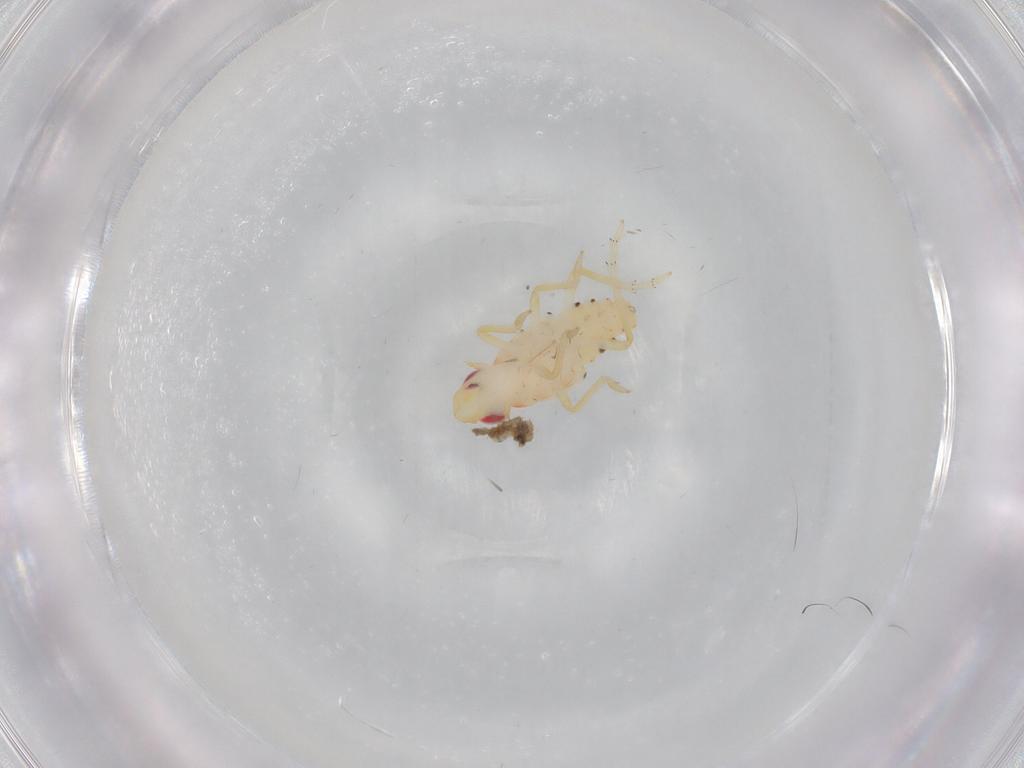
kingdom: Animalia
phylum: Arthropoda
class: Insecta
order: Hemiptera
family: Tropiduchidae
